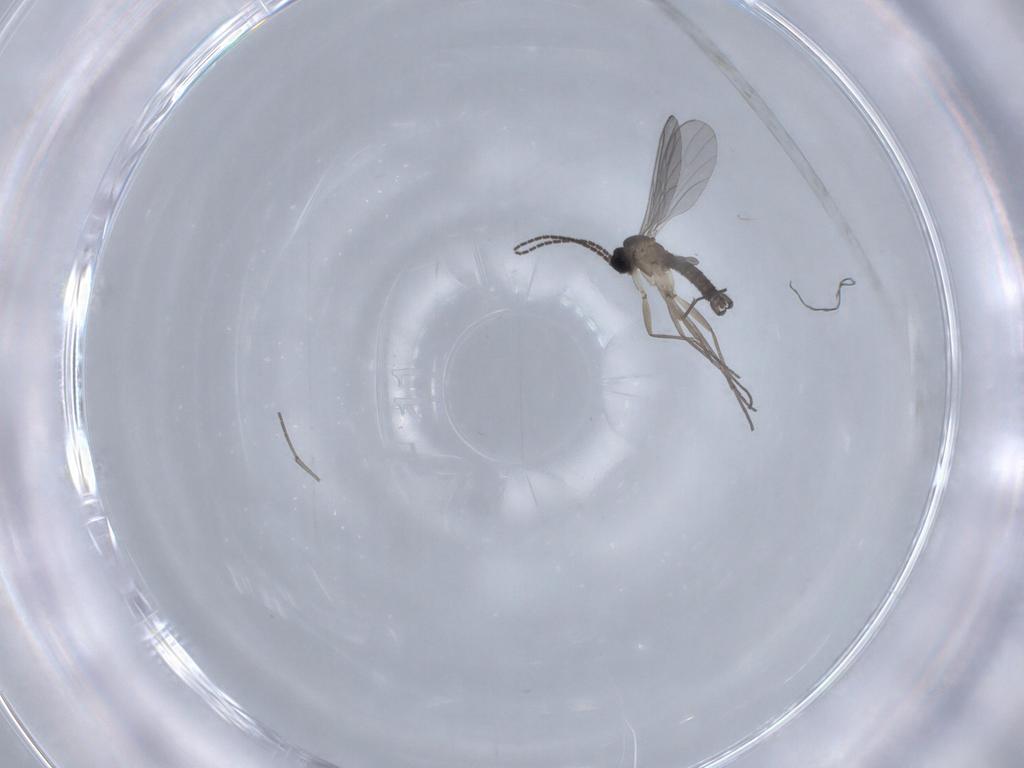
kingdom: Animalia
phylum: Arthropoda
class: Insecta
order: Diptera
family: Sciaridae
